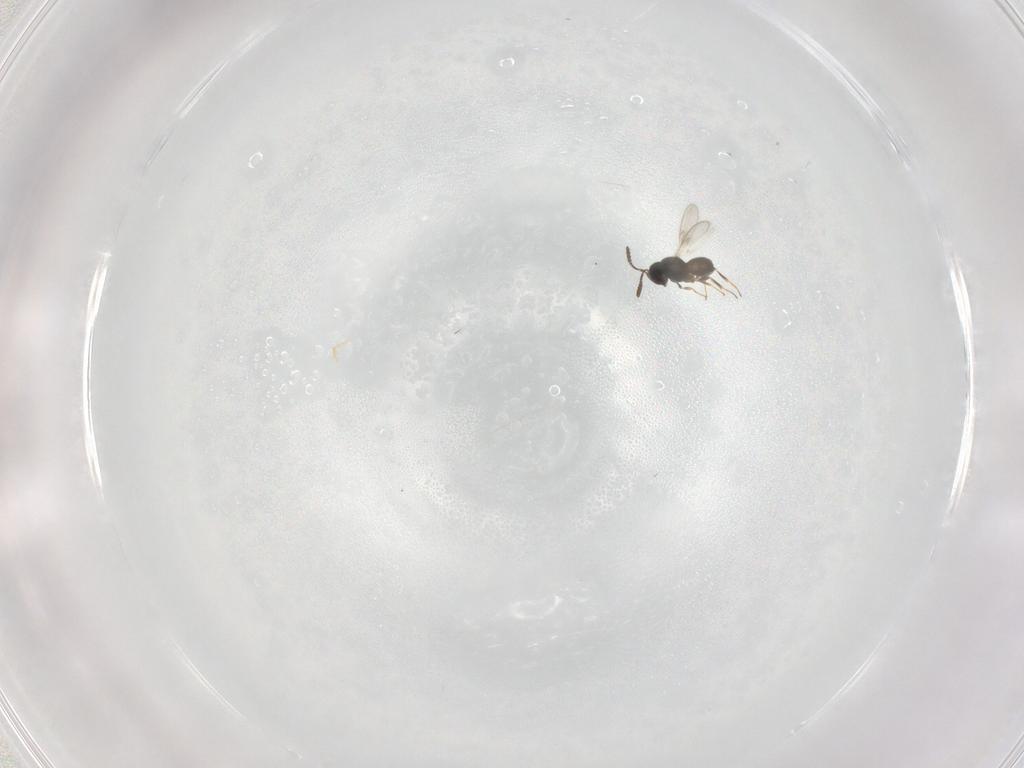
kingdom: Animalia
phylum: Arthropoda
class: Insecta
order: Hymenoptera
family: Scelionidae
